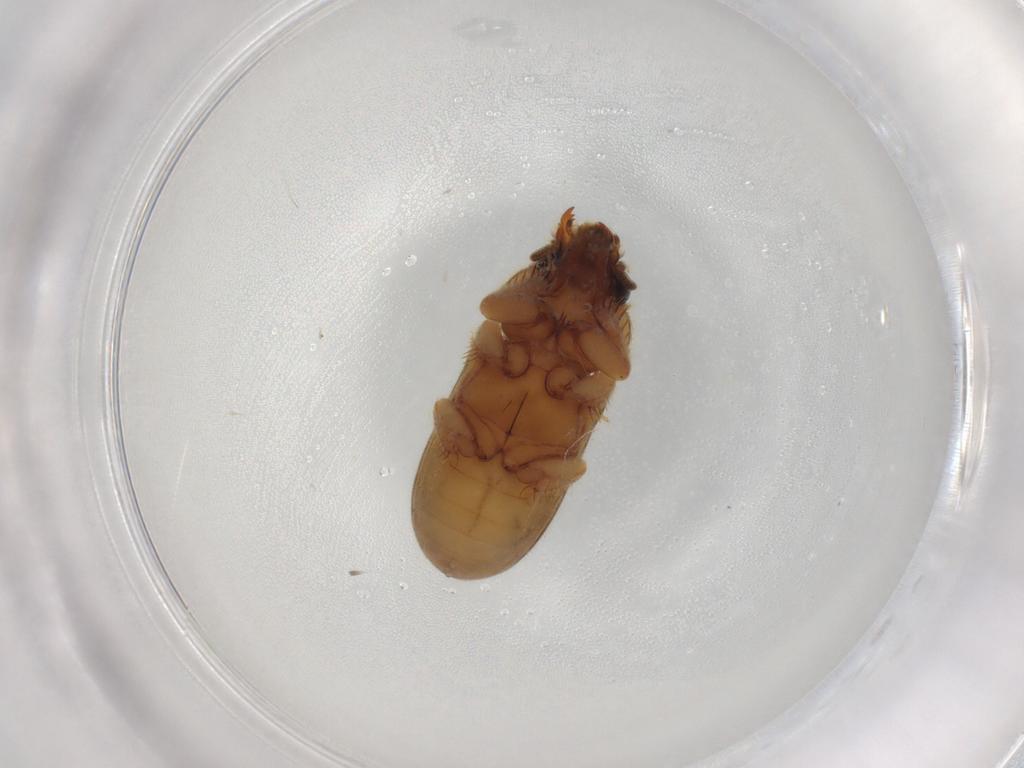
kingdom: Animalia
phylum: Arthropoda
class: Insecta
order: Coleoptera
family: Heteroceridae
